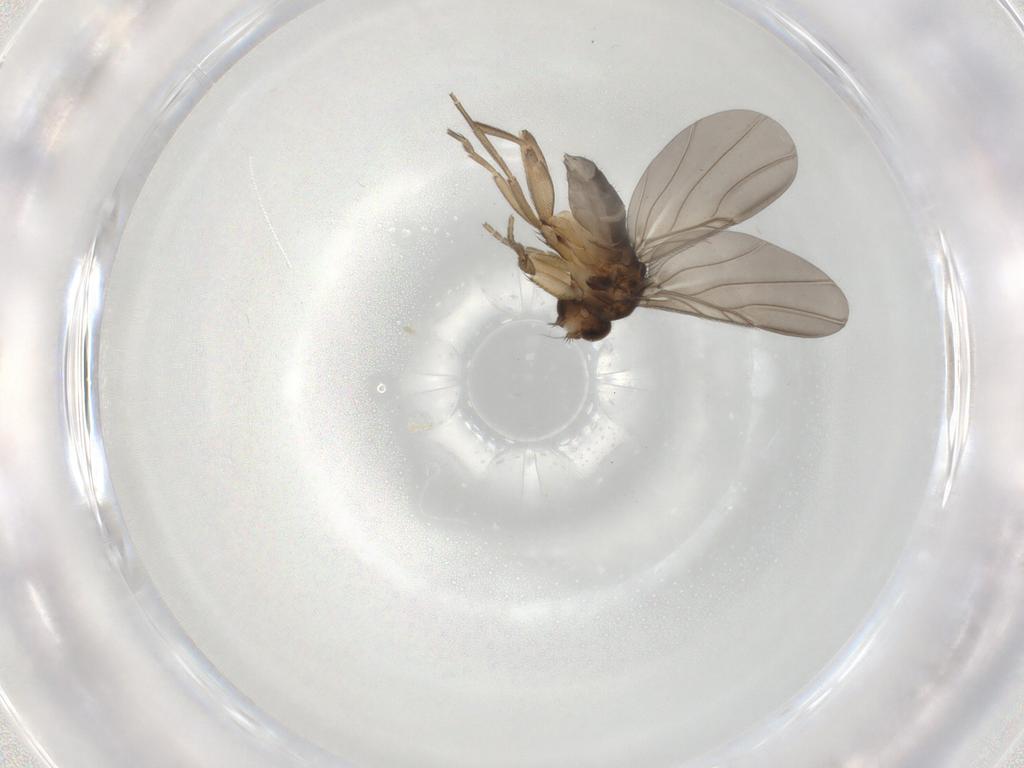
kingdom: Animalia
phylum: Arthropoda
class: Insecta
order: Diptera
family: Phoridae
